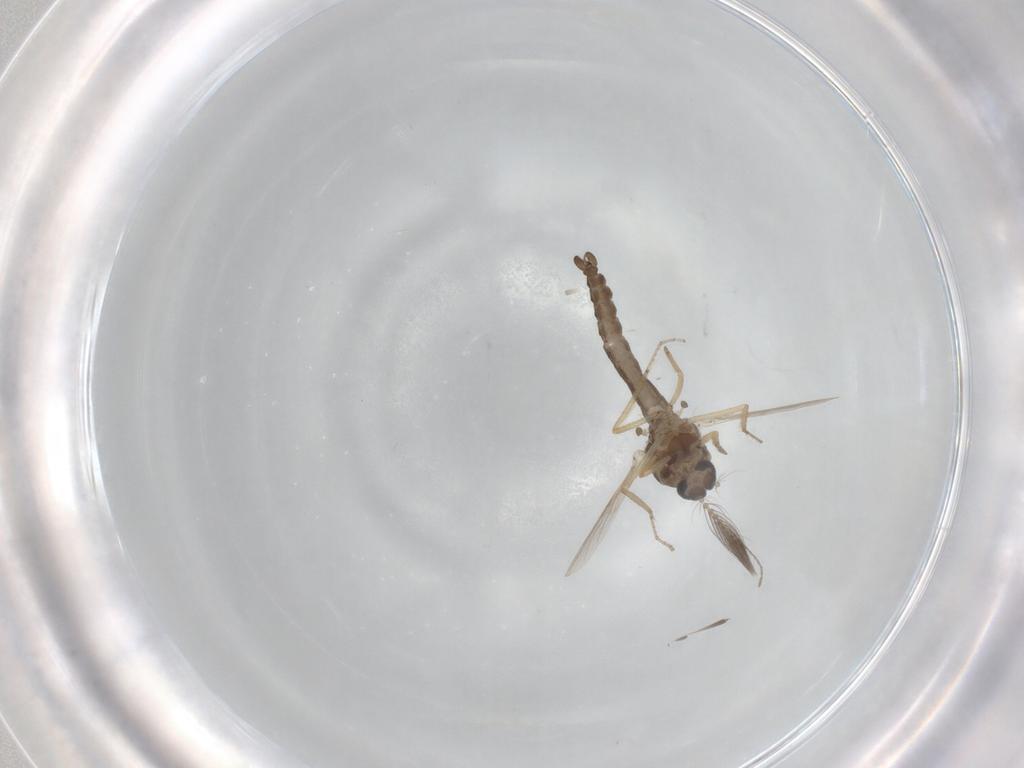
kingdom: Animalia
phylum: Arthropoda
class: Insecta
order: Diptera
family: Ceratopogonidae
